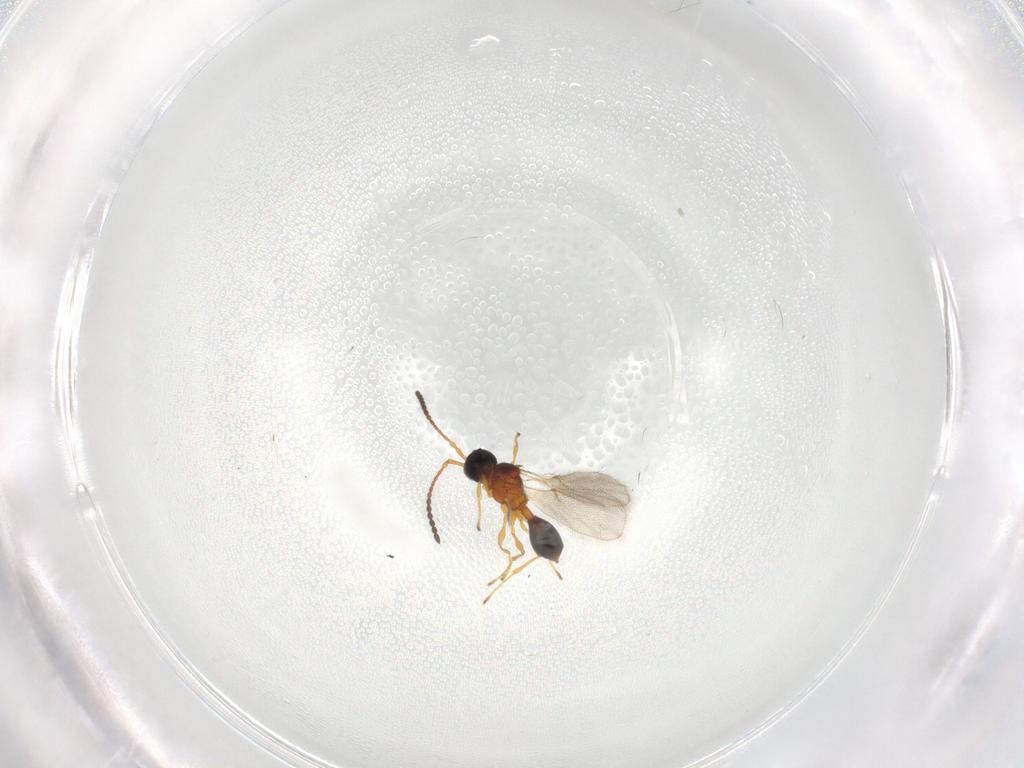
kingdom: Animalia
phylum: Arthropoda
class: Insecta
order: Hymenoptera
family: Diapriidae
